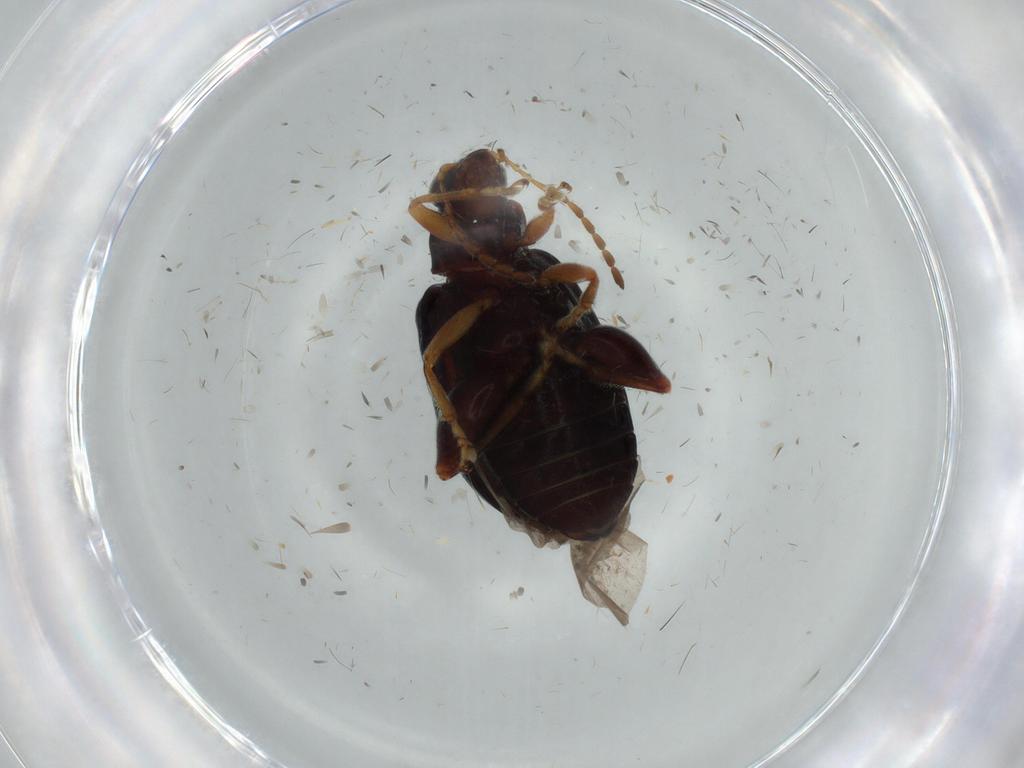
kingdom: Animalia
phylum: Arthropoda
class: Insecta
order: Coleoptera
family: Chrysomelidae
